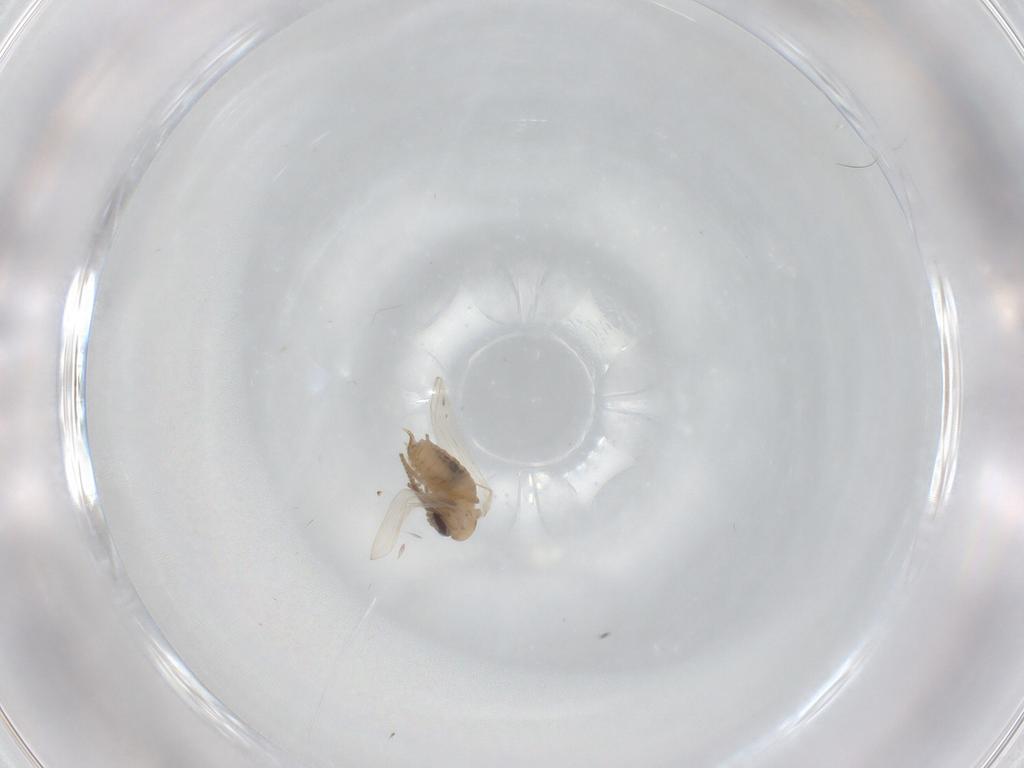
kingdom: Animalia
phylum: Arthropoda
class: Insecta
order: Diptera
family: Psychodidae
